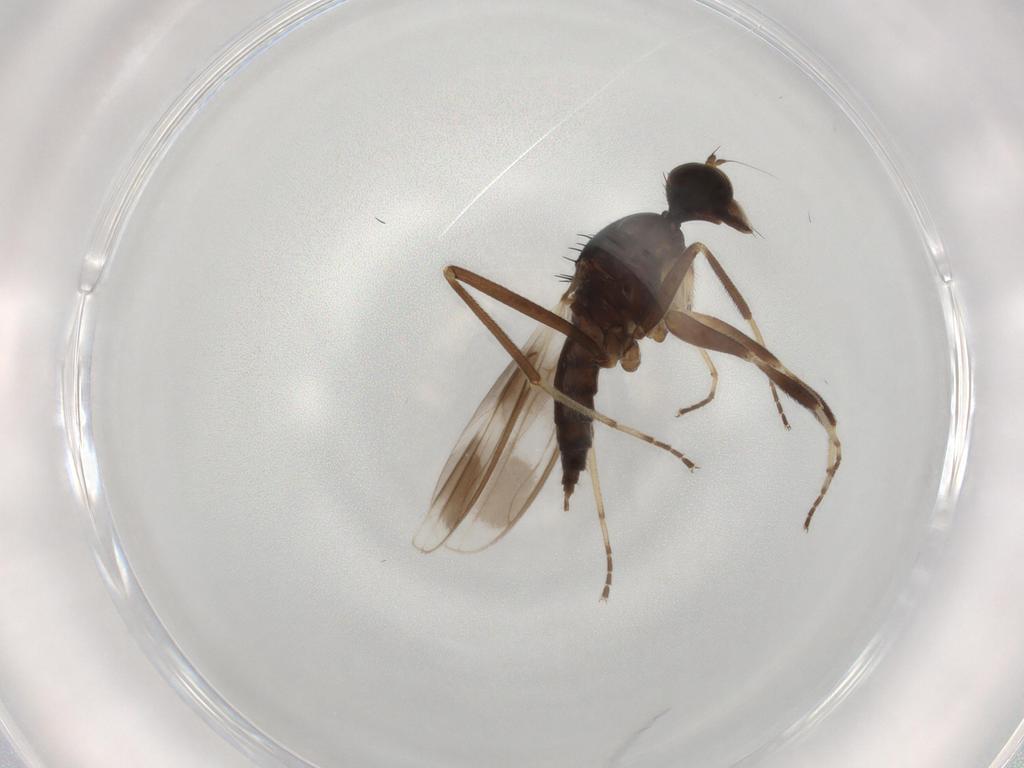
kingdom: Animalia
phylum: Arthropoda
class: Insecta
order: Diptera
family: Hybotidae
